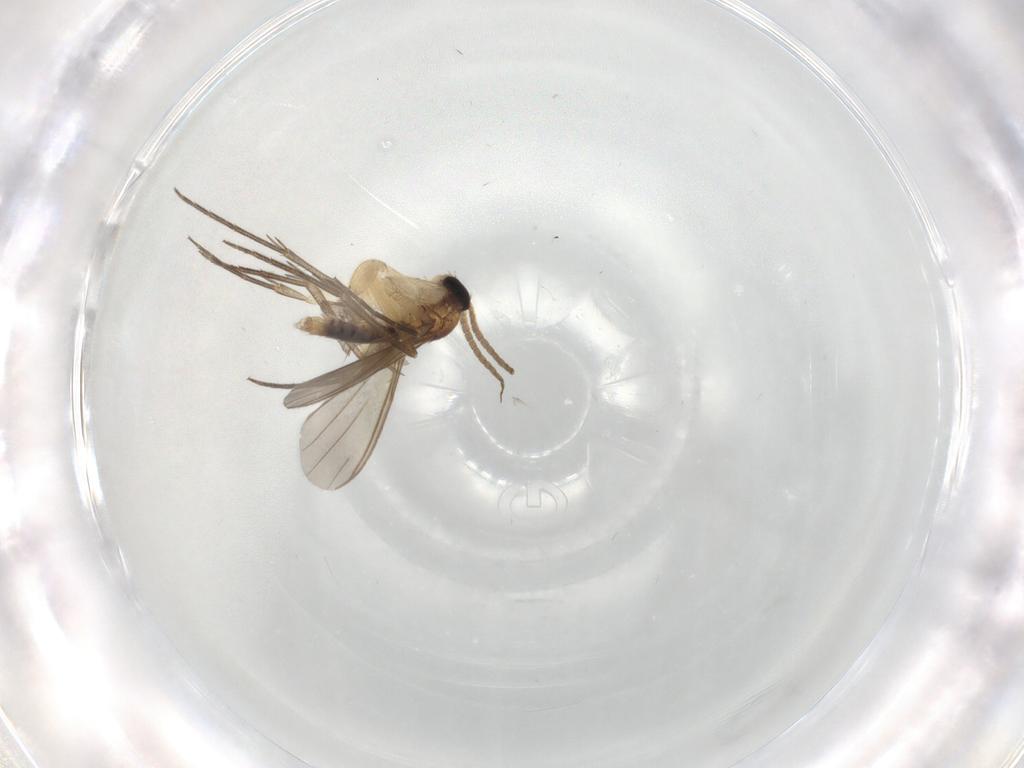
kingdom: Animalia
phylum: Arthropoda
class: Insecta
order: Diptera
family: Mycetophilidae
